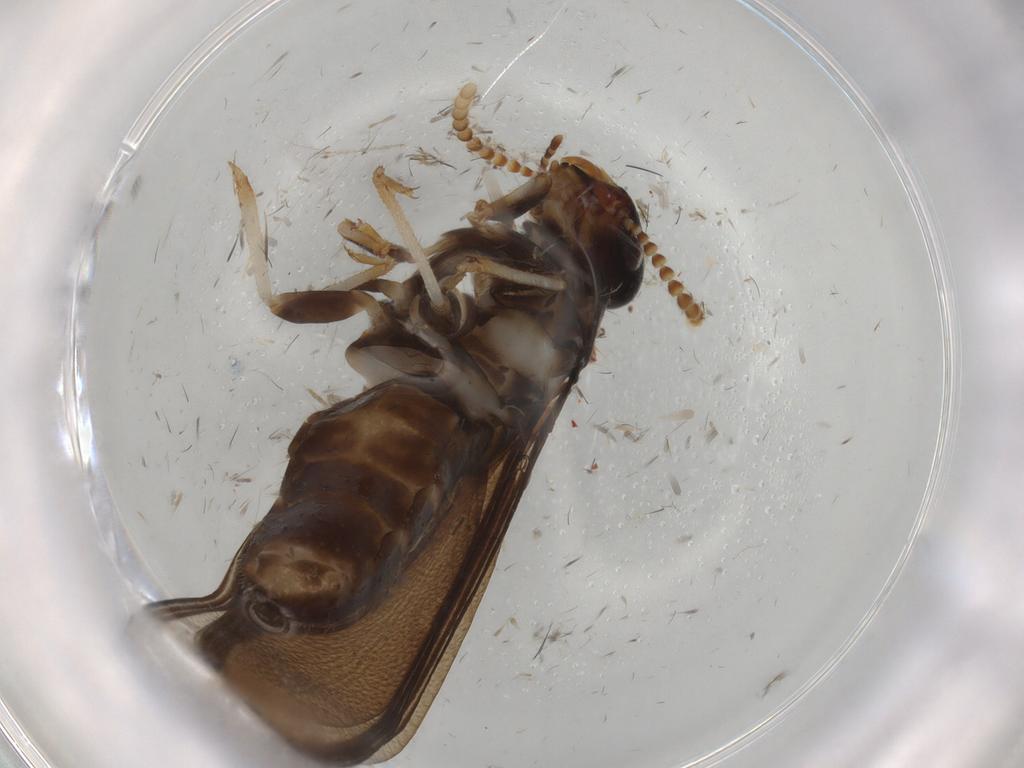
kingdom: Animalia
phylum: Arthropoda
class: Insecta
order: Blattodea
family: Kalotermitidae
